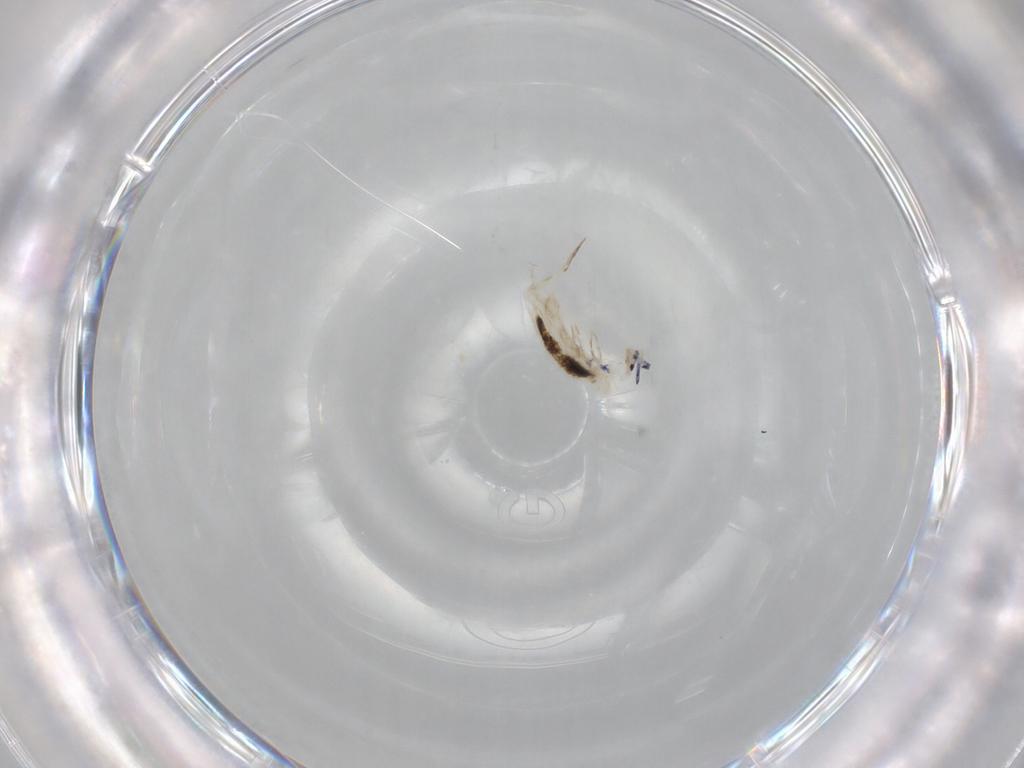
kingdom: Animalia
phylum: Arthropoda
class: Collembola
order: Entomobryomorpha
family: Entomobryidae
